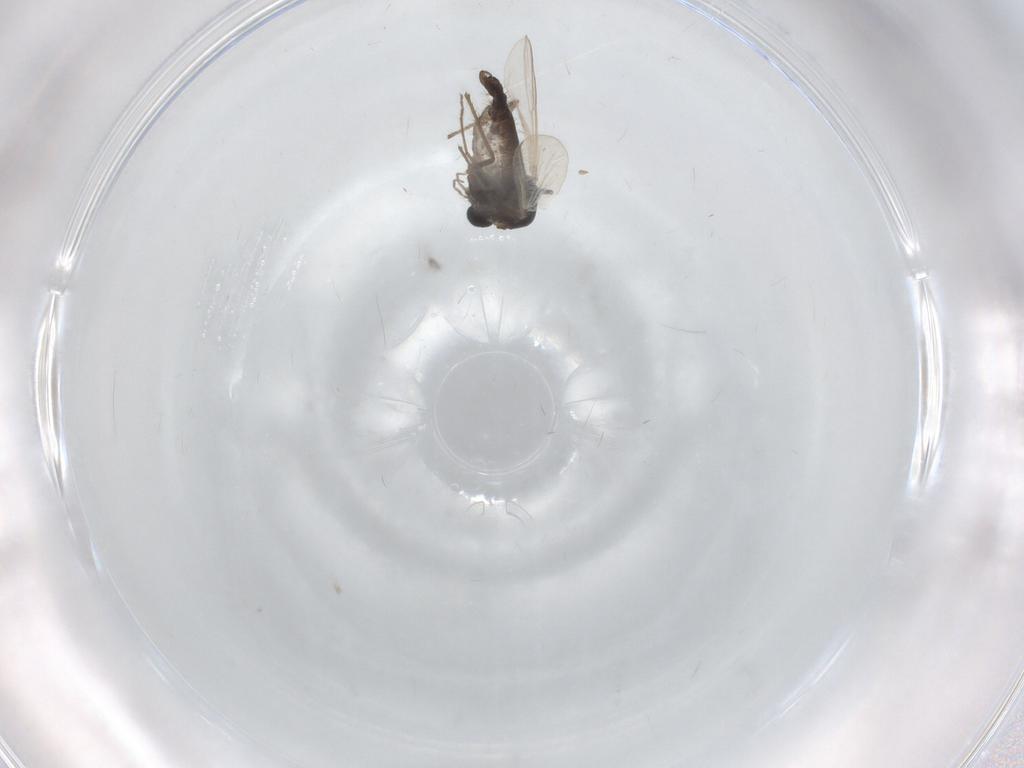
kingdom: Animalia
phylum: Arthropoda
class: Insecta
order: Diptera
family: Chironomidae
